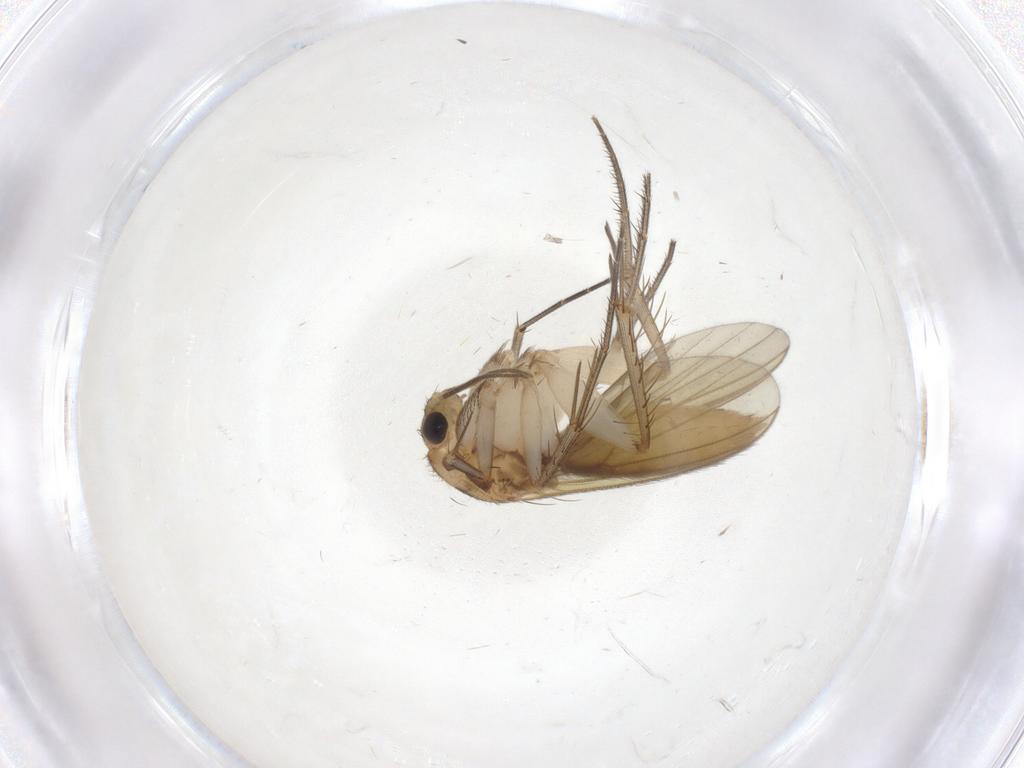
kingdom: Animalia
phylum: Arthropoda
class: Insecta
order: Diptera
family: Mycetophilidae
